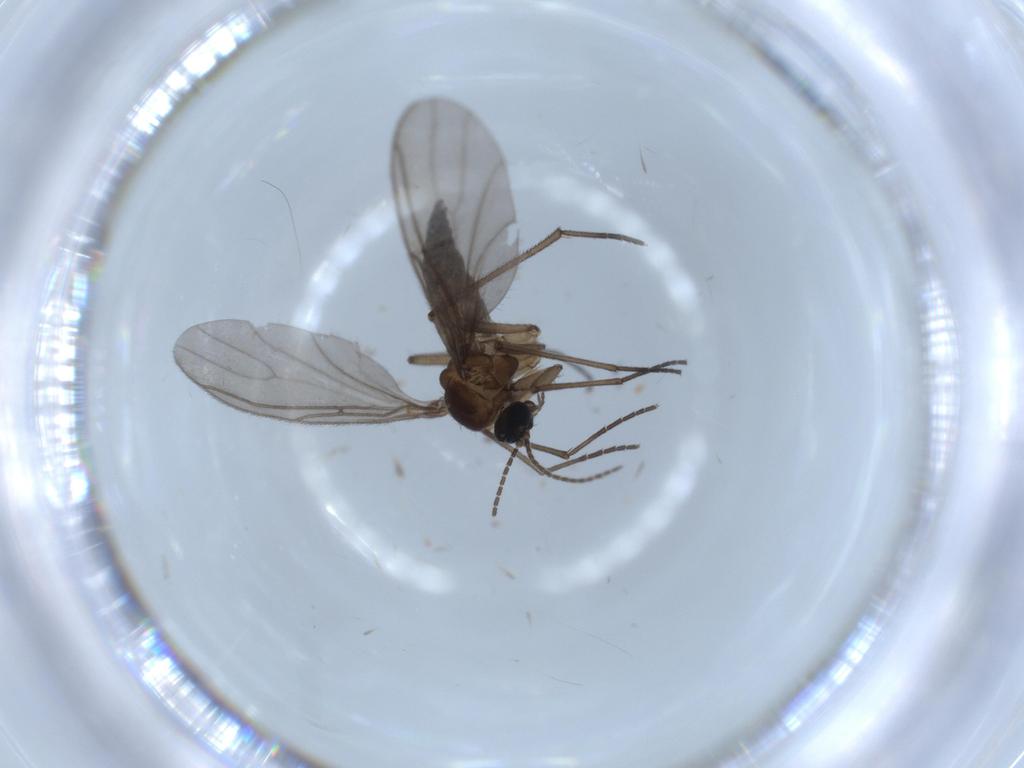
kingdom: Animalia
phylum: Arthropoda
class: Insecta
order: Diptera
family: Sciaridae
